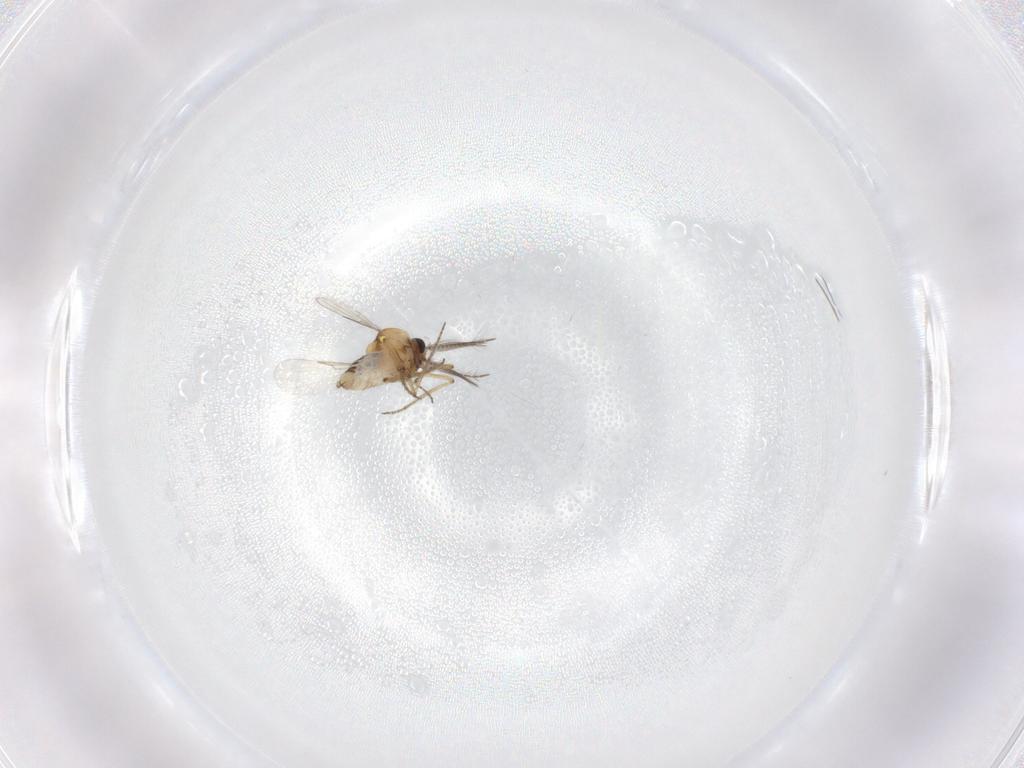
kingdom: Animalia
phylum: Arthropoda
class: Insecta
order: Diptera
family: Ceratopogonidae
